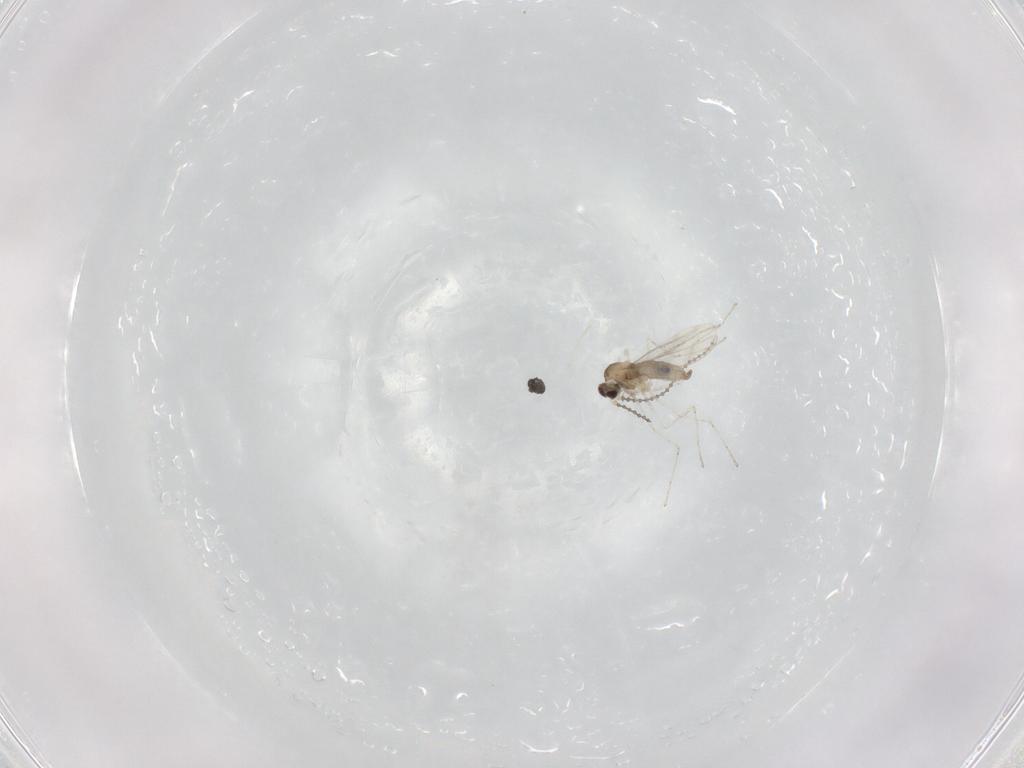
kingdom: Animalia
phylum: Arthropoda
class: Insecta
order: Diptera
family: Cecidomyiidae
